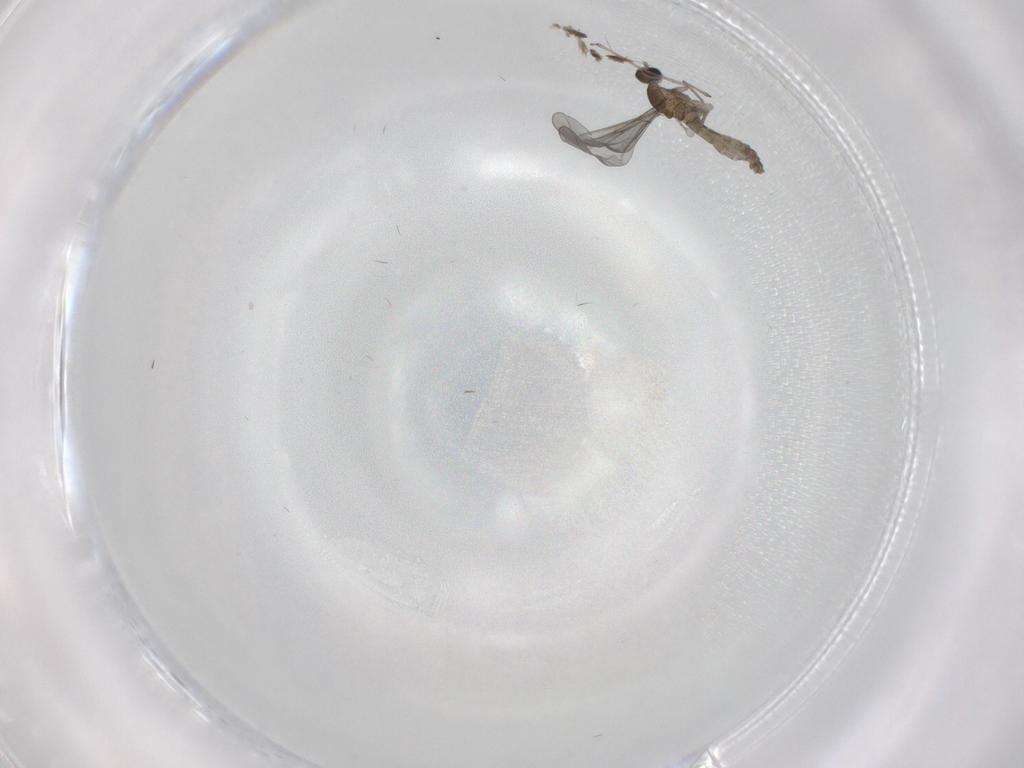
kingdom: Animalia
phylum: Arthropoda
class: Insecta
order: Diptera
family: Cecidomyiidae
